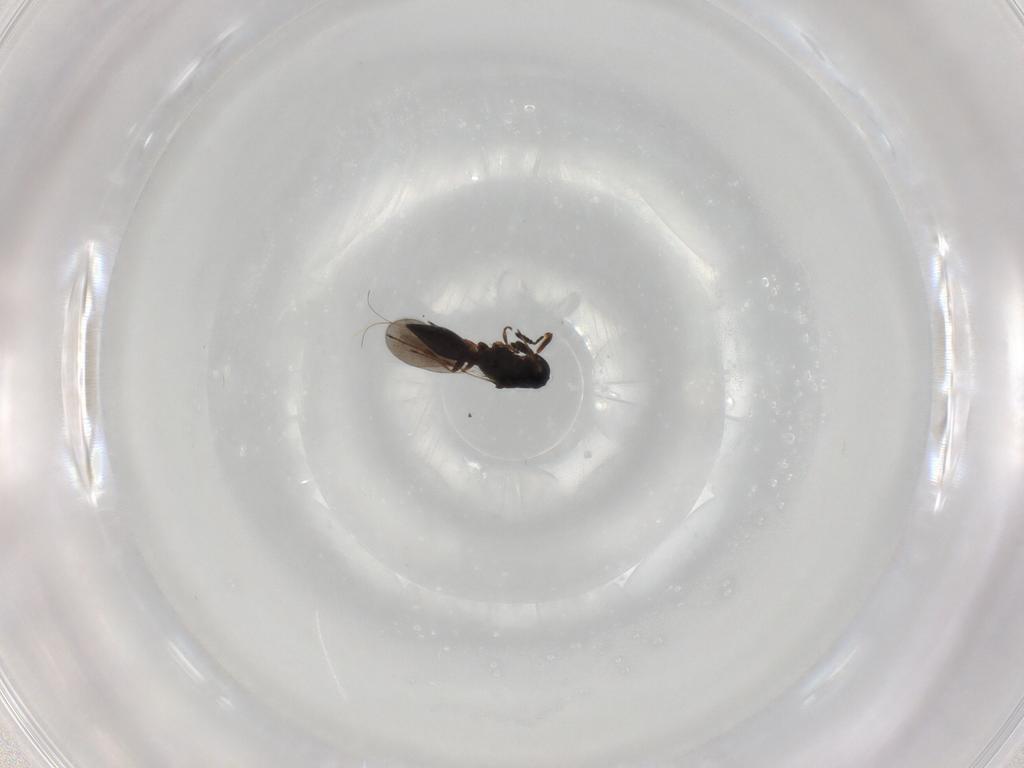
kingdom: Animalia
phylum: Arthropoda
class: Insecta
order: Hymenoptera
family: Platygastridae
